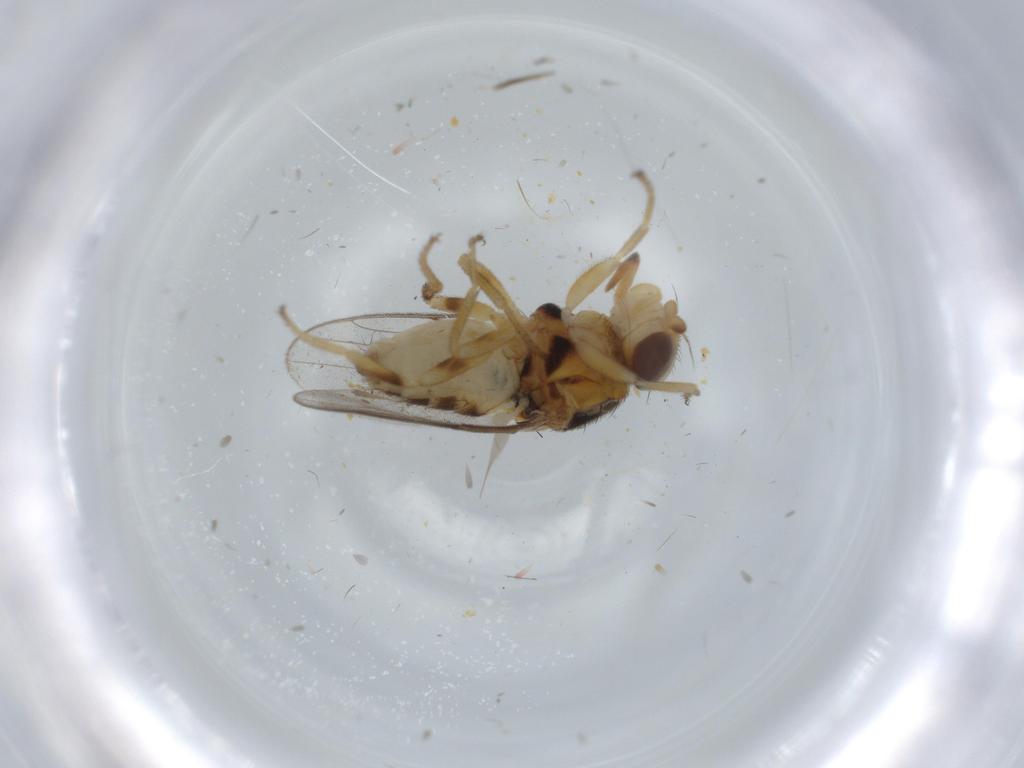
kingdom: Animalia
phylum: Arthropoda
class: Insecta
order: Diptera
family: Chloropidae
